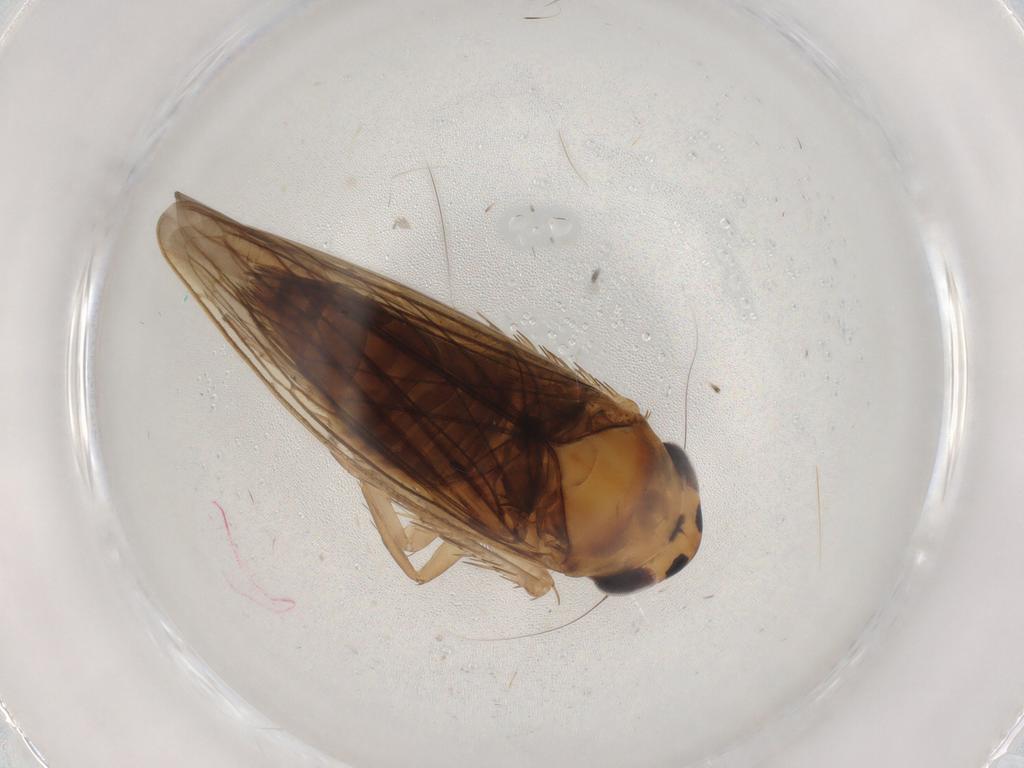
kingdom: Animalia
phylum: Arthropoda
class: Insecta
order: Hemiptera
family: Cicadellidae
